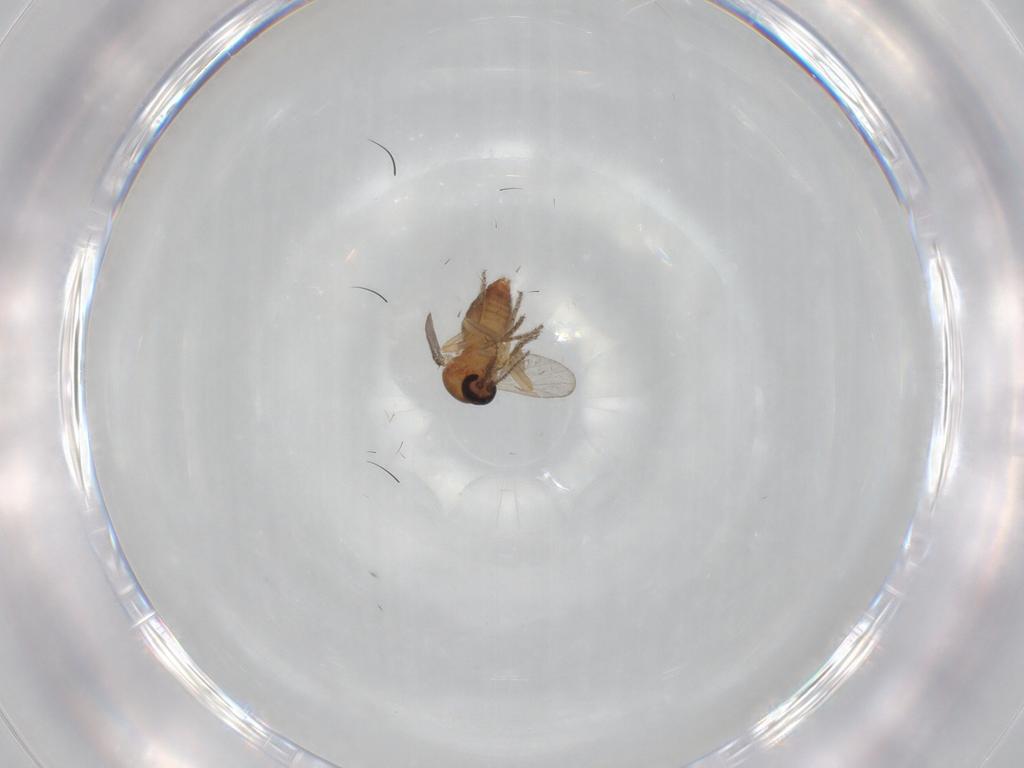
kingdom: Animalia
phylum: Arthropoda
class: Insecta
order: Diptera
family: Ceratopogonidae
